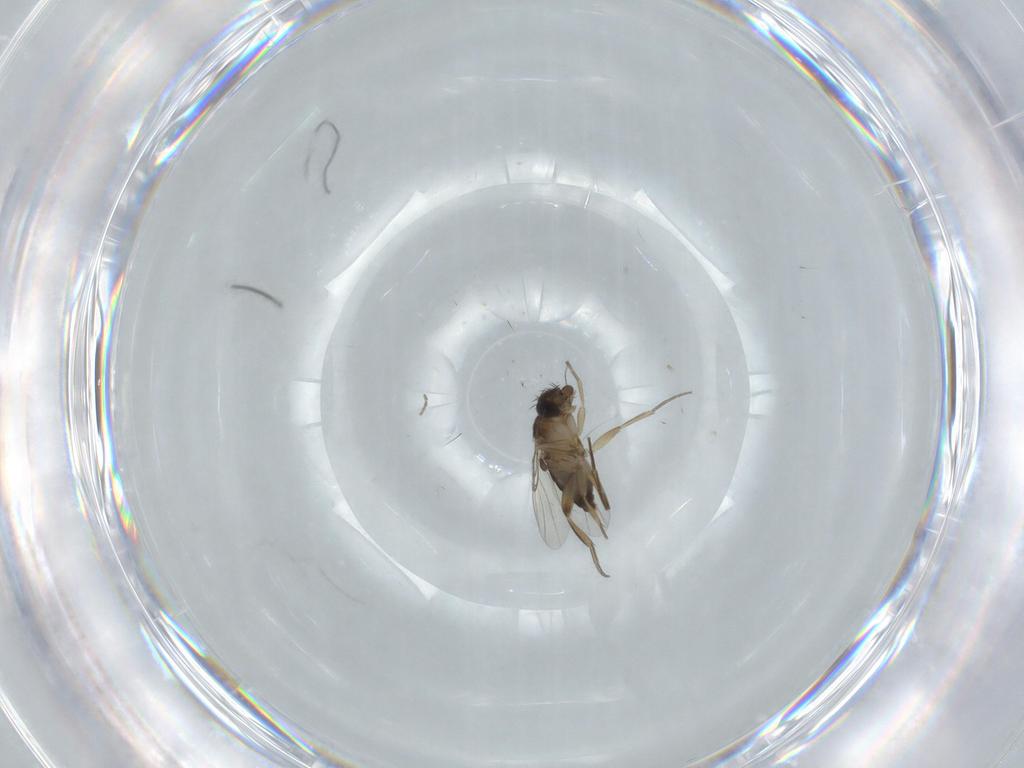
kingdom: Animalia
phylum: Arthropoda
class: Insecta
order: Diptera
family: Phoridae
